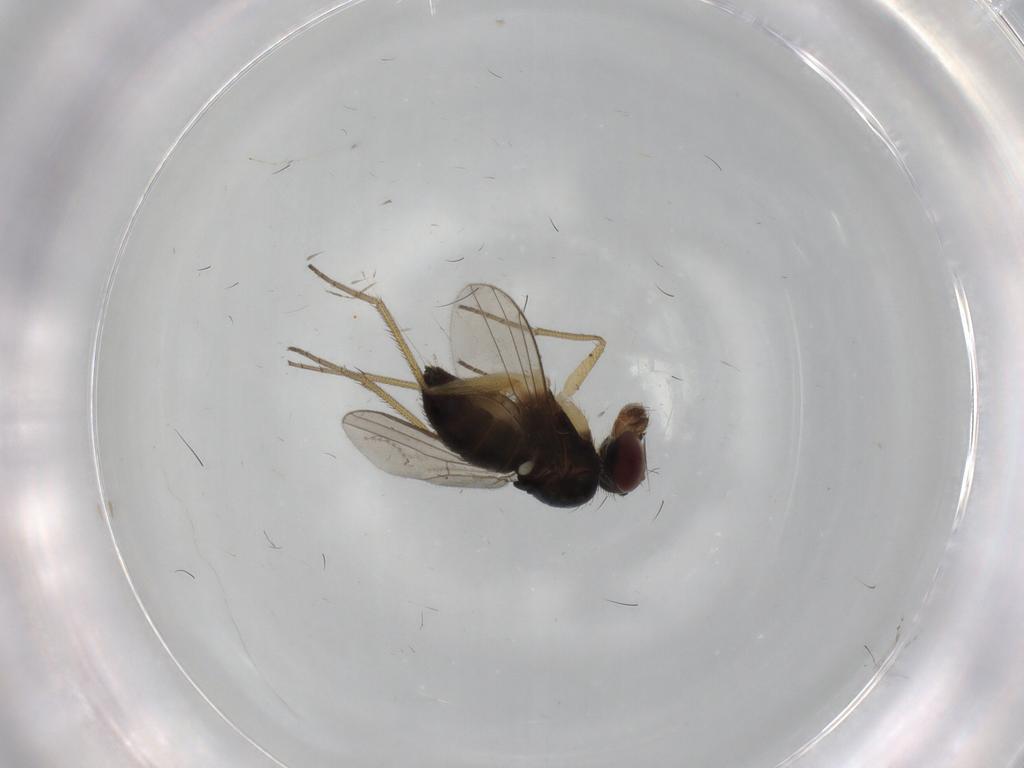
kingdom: Animalia
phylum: Arthropoda
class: Insecta
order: Diptera
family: Dolichopodidae
